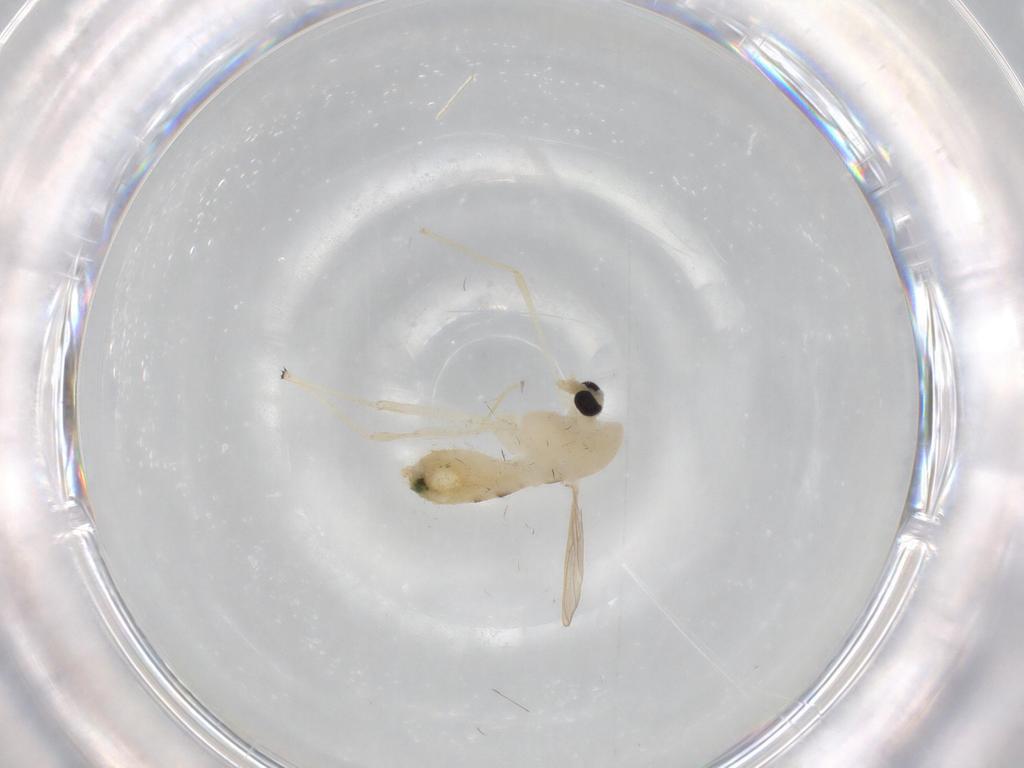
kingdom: Animalia
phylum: Arthropoda
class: Insecta
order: Diptera
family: Chironomidae
